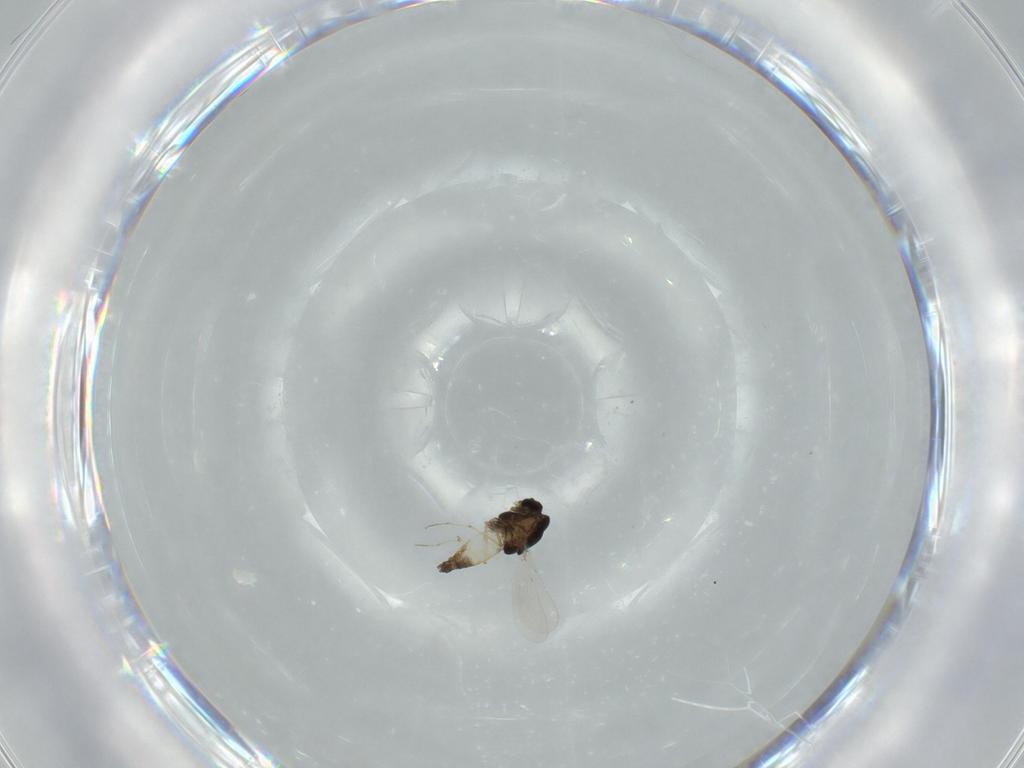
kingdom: Animalia
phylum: Arthropoda
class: Insecta
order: Diptera
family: Chironomidae
